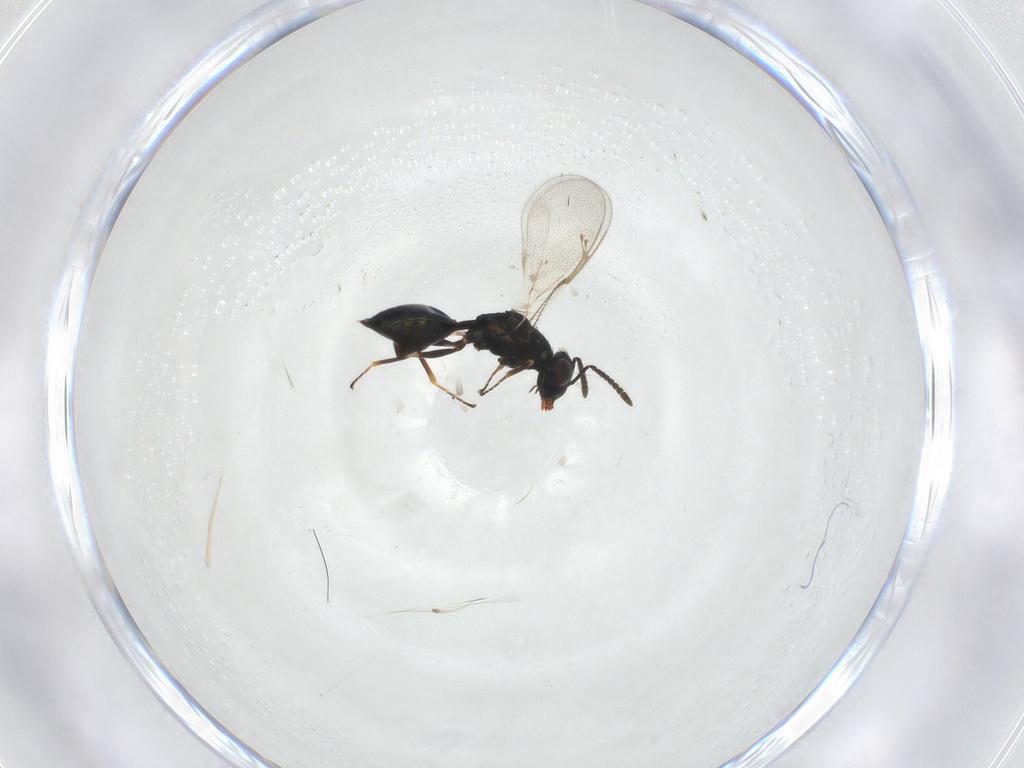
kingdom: Animalia
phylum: Arthropoda
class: Insecta
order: Hymenoptera
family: Pteromalidae
